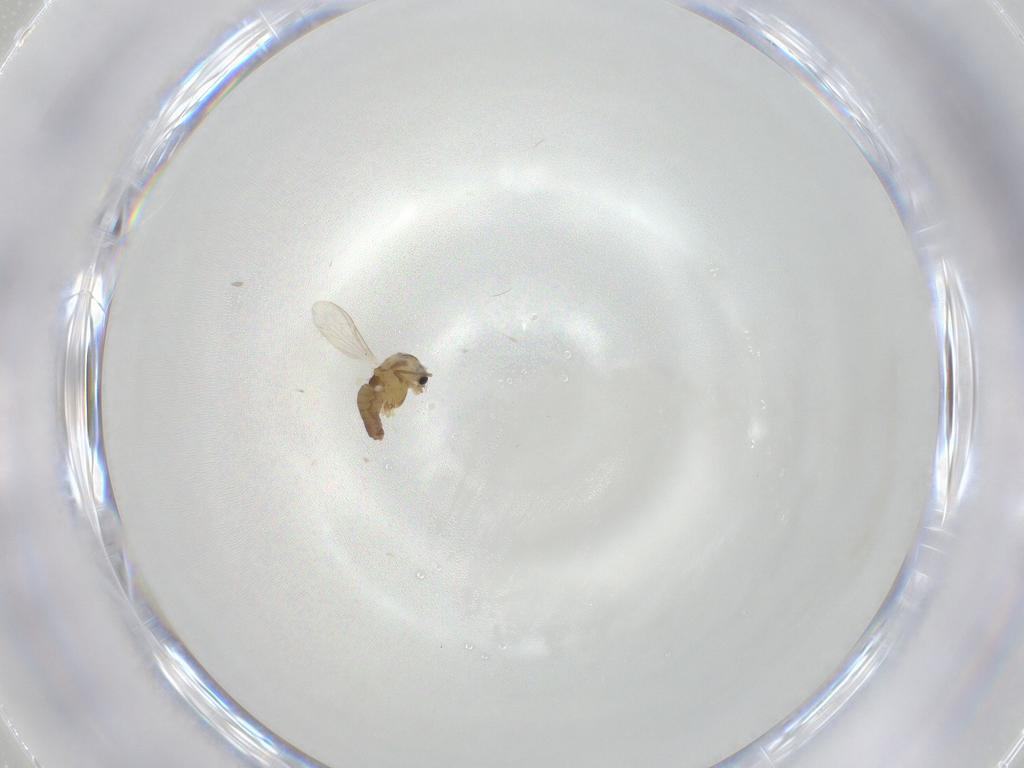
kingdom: Animalia
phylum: Arthropoda
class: Insecta
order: Diptera
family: Chironomidae
